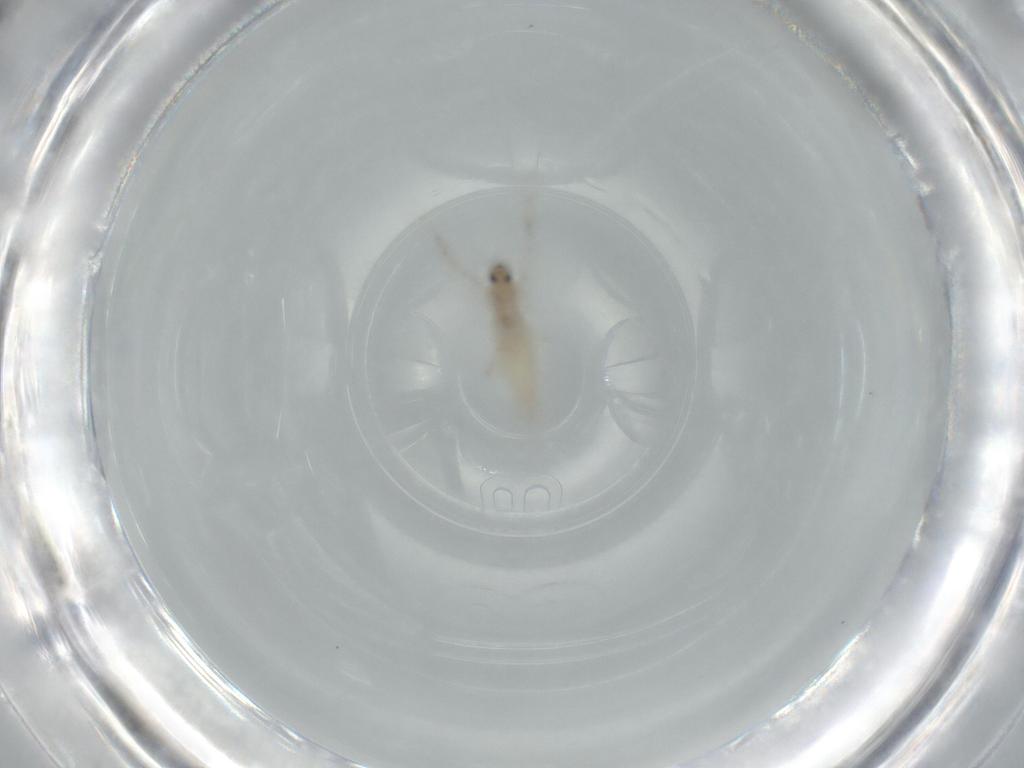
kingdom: Animalia
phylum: Arthropoda
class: Insecta
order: Diptera
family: Cecidomyiidae
